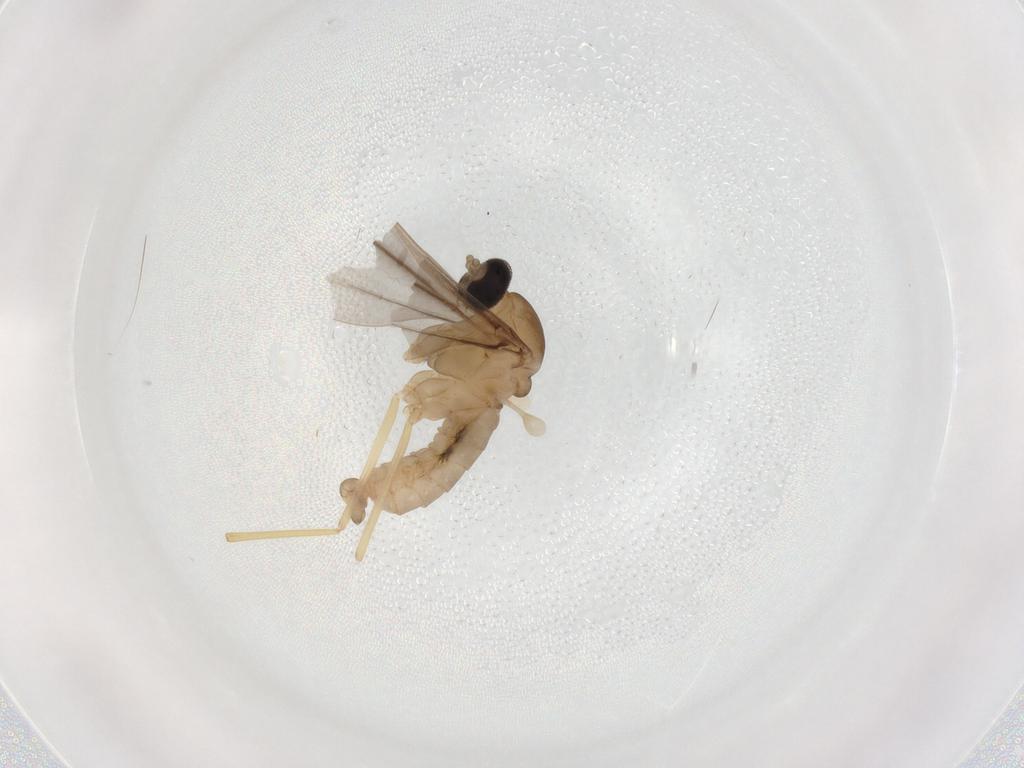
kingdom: Animalia
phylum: Arthropoda
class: Insecta
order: Diptera
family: Cecidomyiidae
